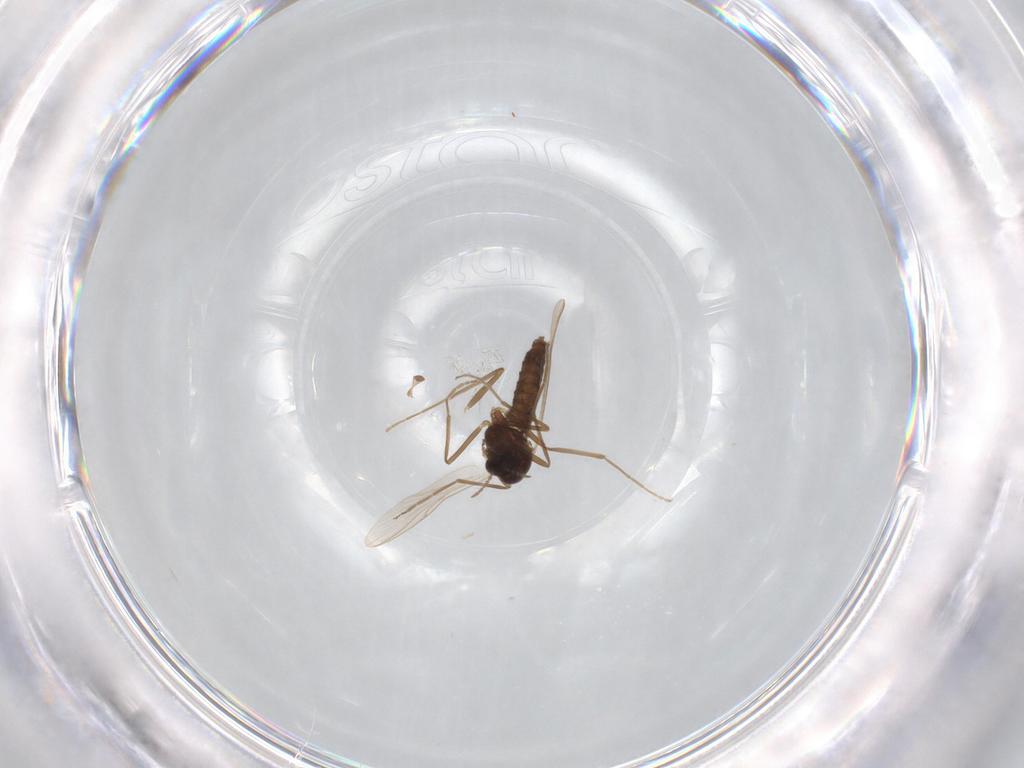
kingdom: Animalia
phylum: Arthropoda
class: Insecta
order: Diptera
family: Chironomidae
